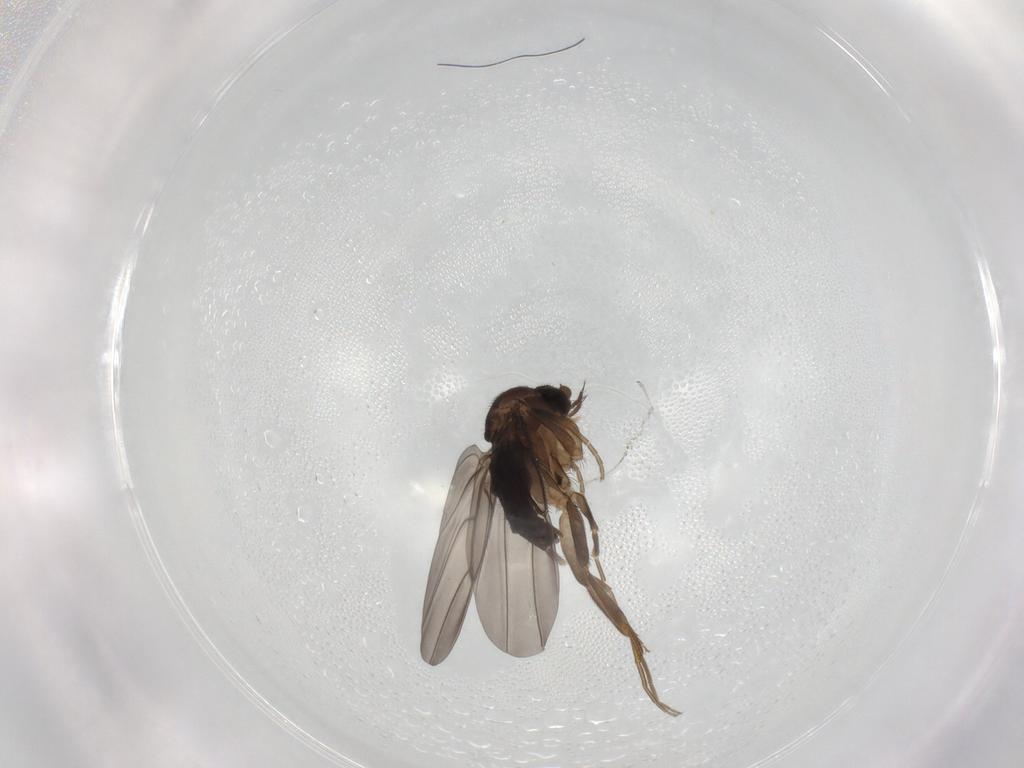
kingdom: Animalia
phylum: Arthropoda
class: Insecta
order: Diptera
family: Phoridae
